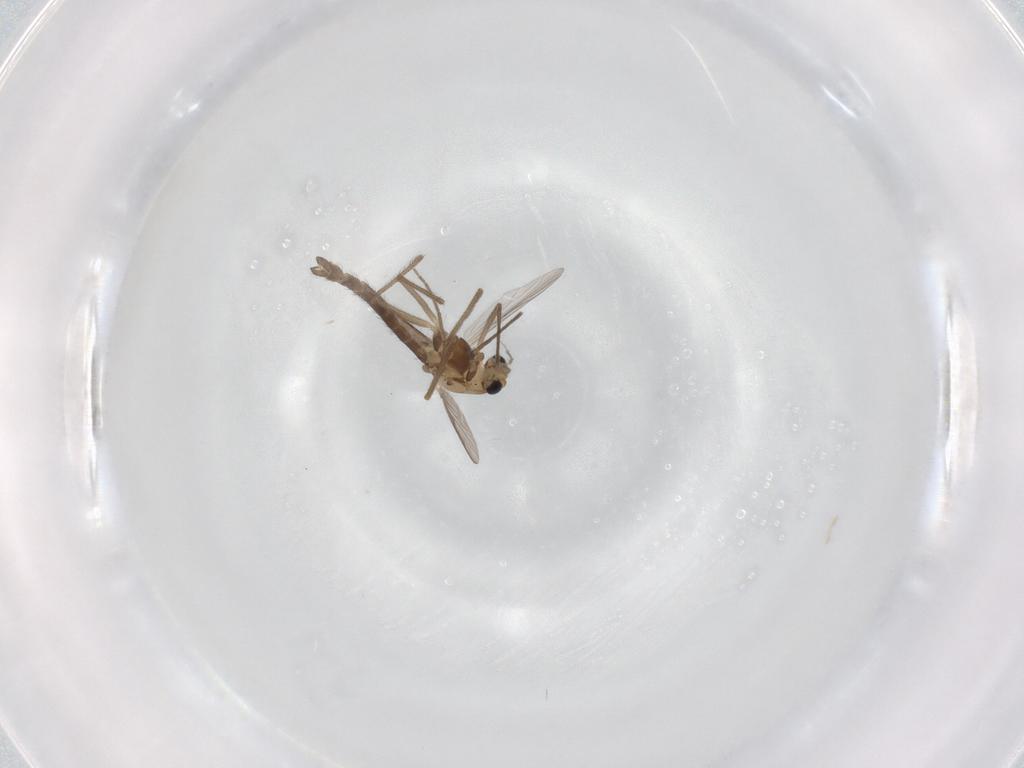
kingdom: Animalia
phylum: Arthropoda
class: Insecta
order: Diptera
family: Chironomidae
